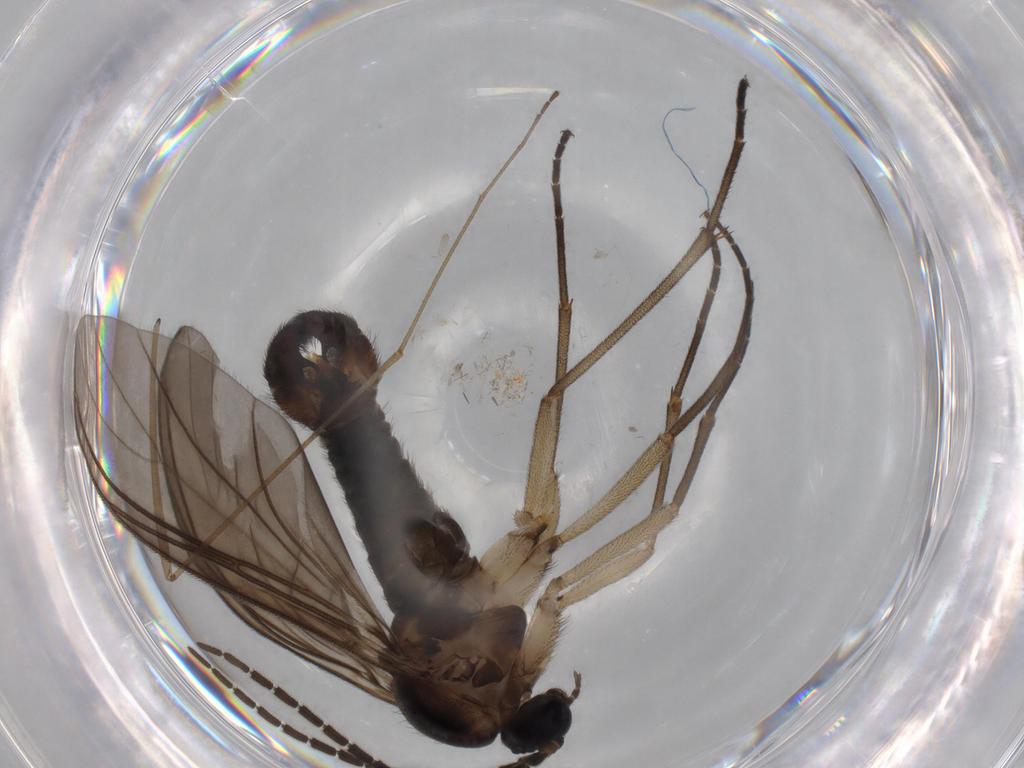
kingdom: Animalia
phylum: Arthropoda
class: Insecta
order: Diptera
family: Sciaridae
